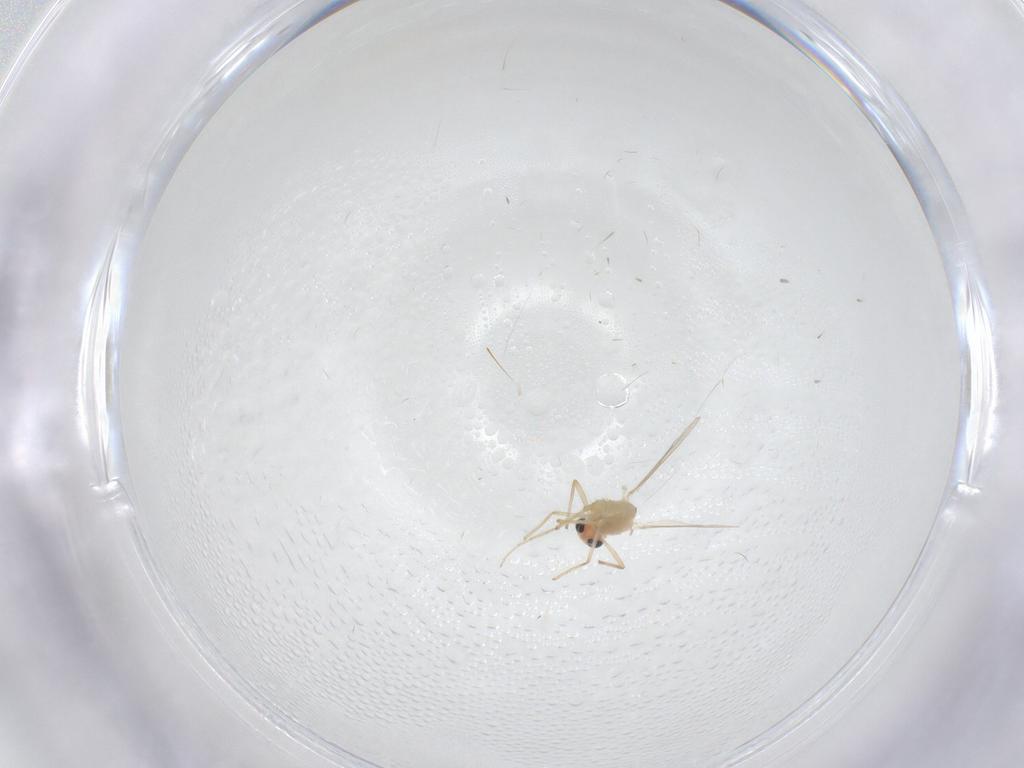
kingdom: Animalia
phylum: Arthropoda
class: Insecta
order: Diptera
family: Chironomidae
